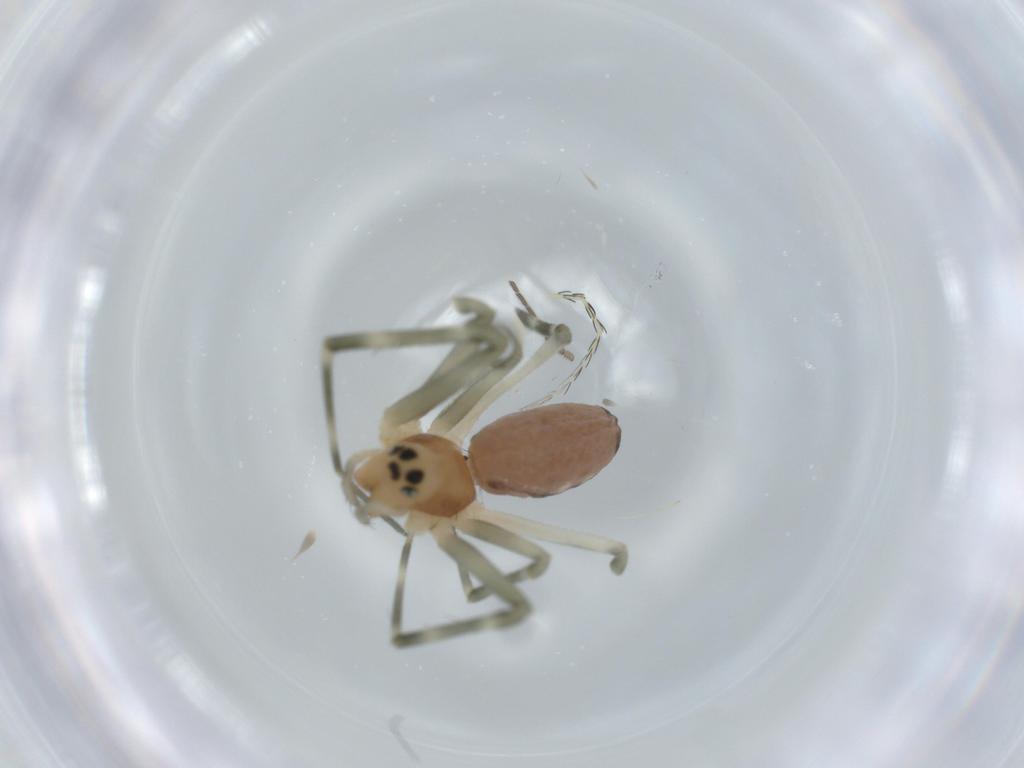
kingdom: Animalia
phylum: Arthropoda
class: Arachnida
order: Araneae
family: Linyphiidae
